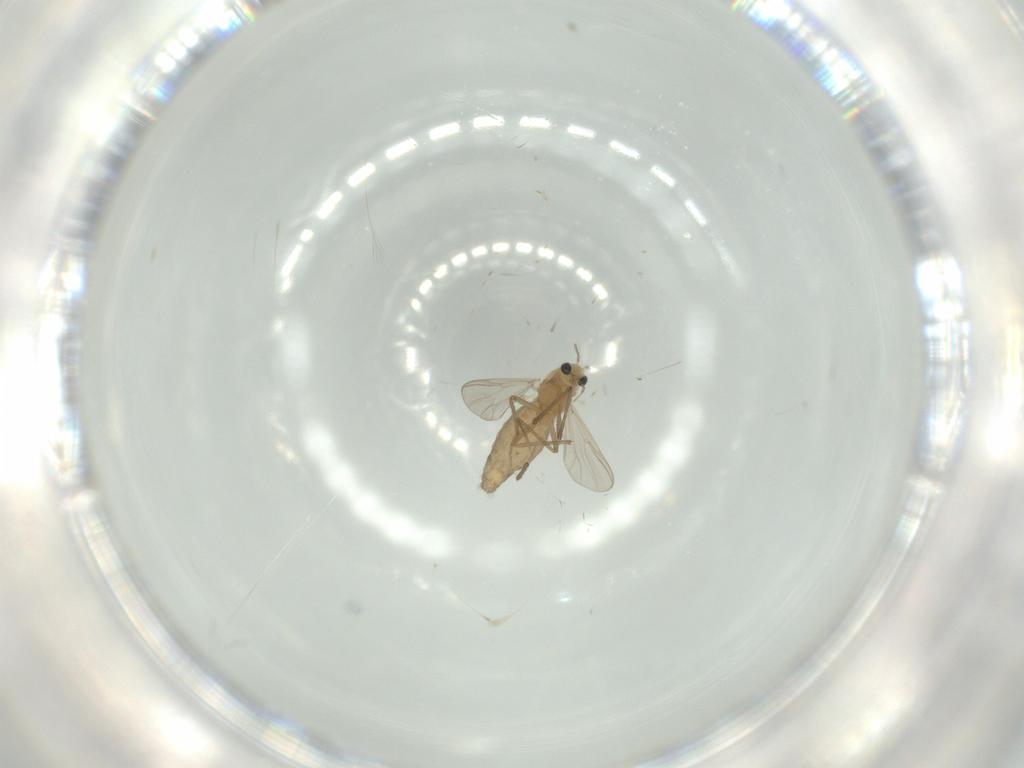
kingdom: Animalia
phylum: Arthropoda
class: Insecta
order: Diptera
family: Chironomidae
